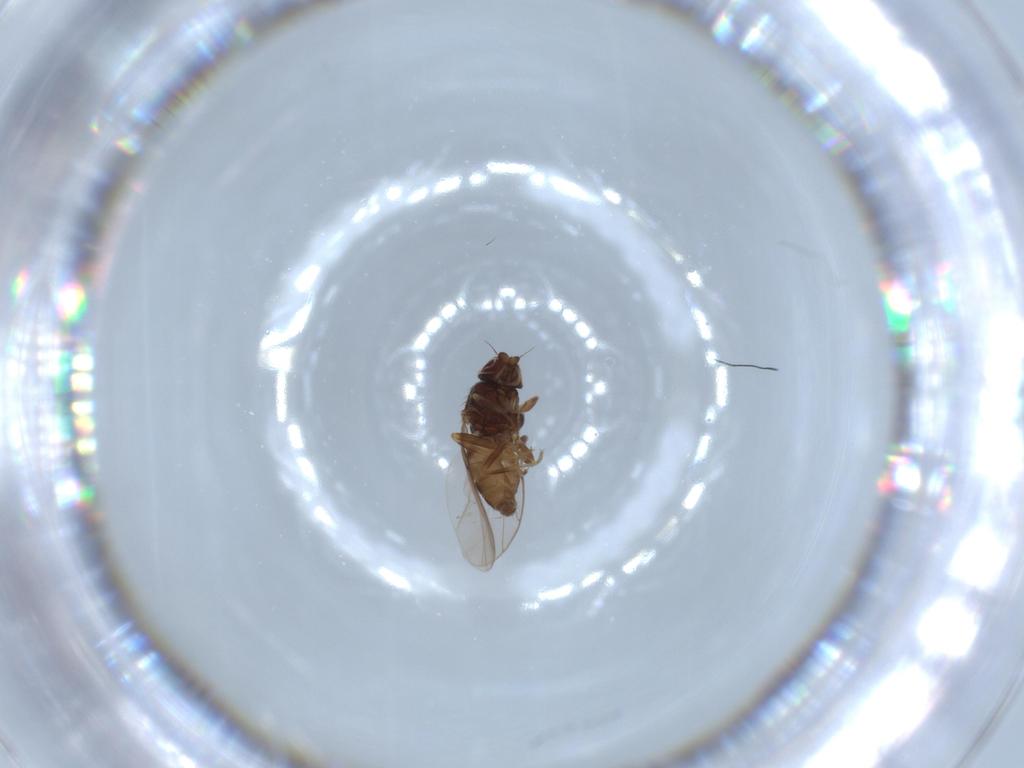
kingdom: Animalia
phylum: Arthropoda
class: Insecta
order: Diptera
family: Chloropidae
